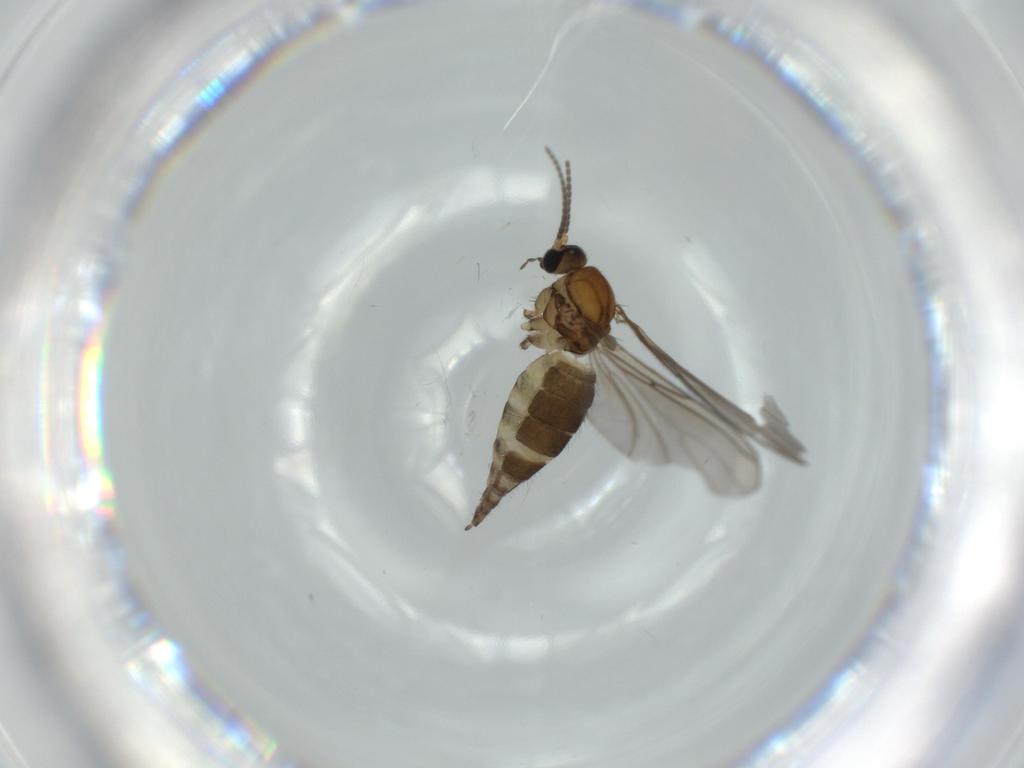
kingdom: Animalia
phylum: Arthropoda
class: Insecta
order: Diptera
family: Sciaridae
